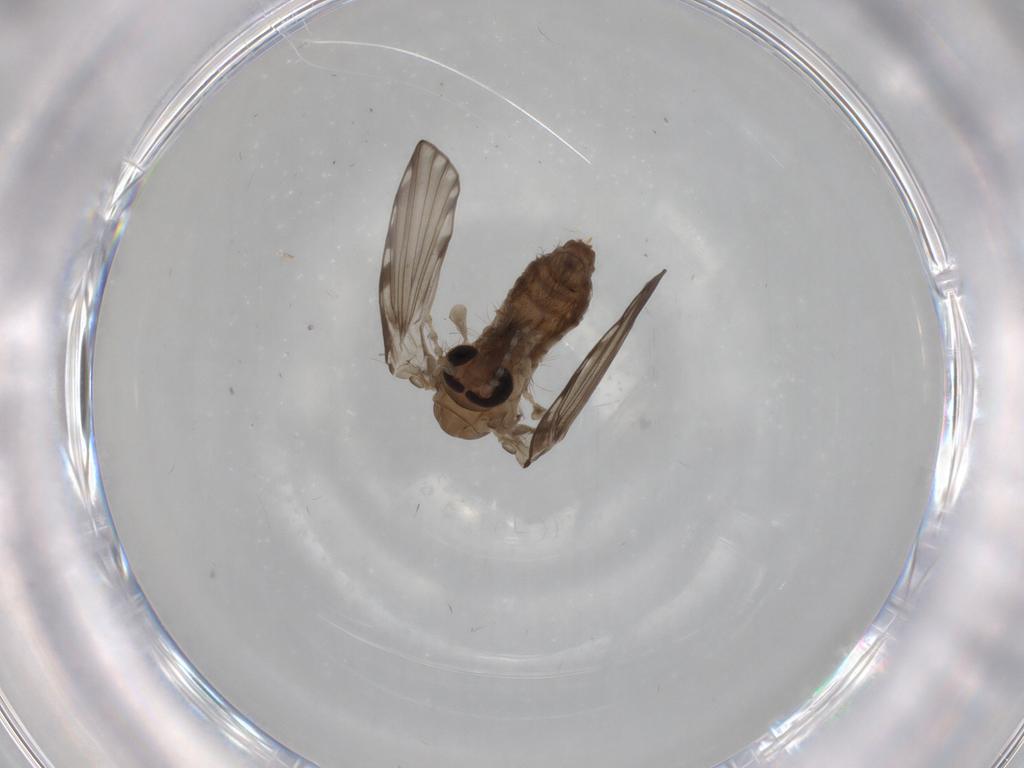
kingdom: Animalia
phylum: Arthropoda
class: Insecta
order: Diptera
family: Psychodidae
